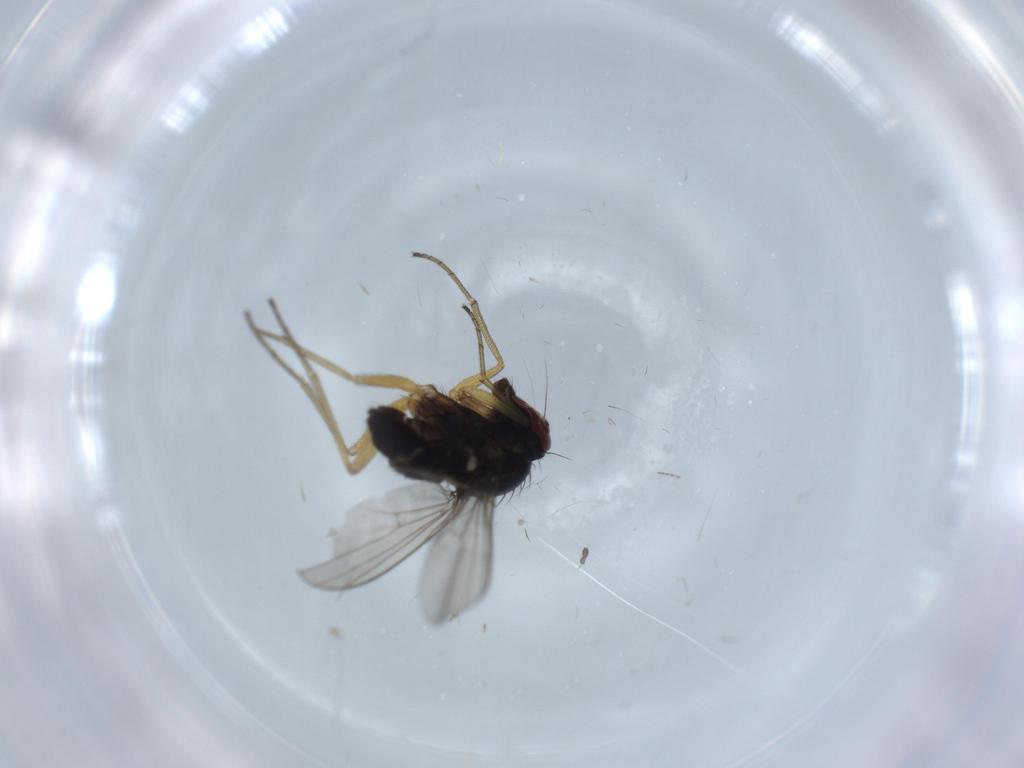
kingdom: Animalia
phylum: Arthropoda
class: Insecta
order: Diptera
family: Dolichopodidae
